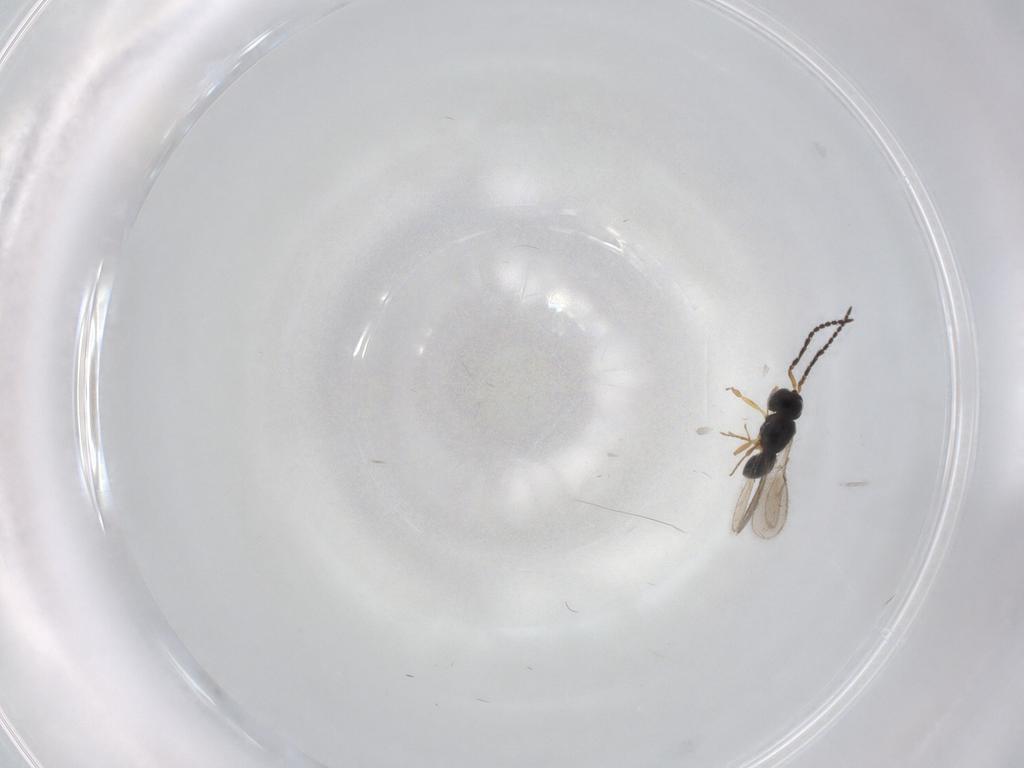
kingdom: Animalia
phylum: Arthropoda
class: Insecta
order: Hymenoptera
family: Scelionidae
